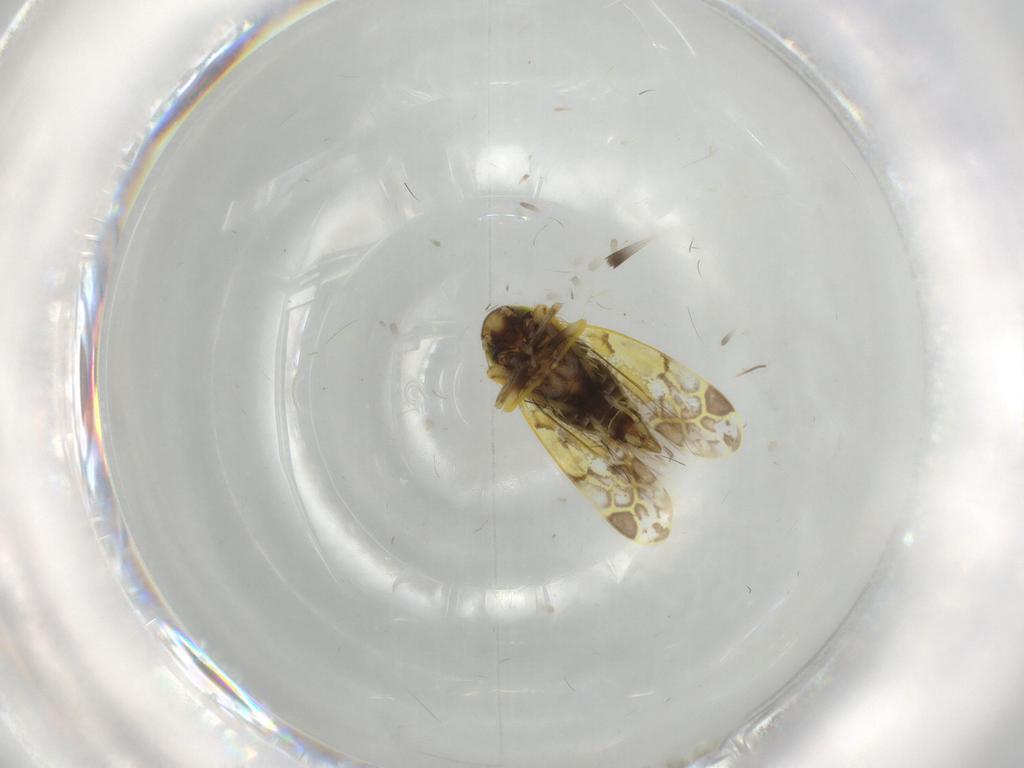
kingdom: Animalia
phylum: Arthropoda
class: Insecta
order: Hemiptera
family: Cicadellidae
